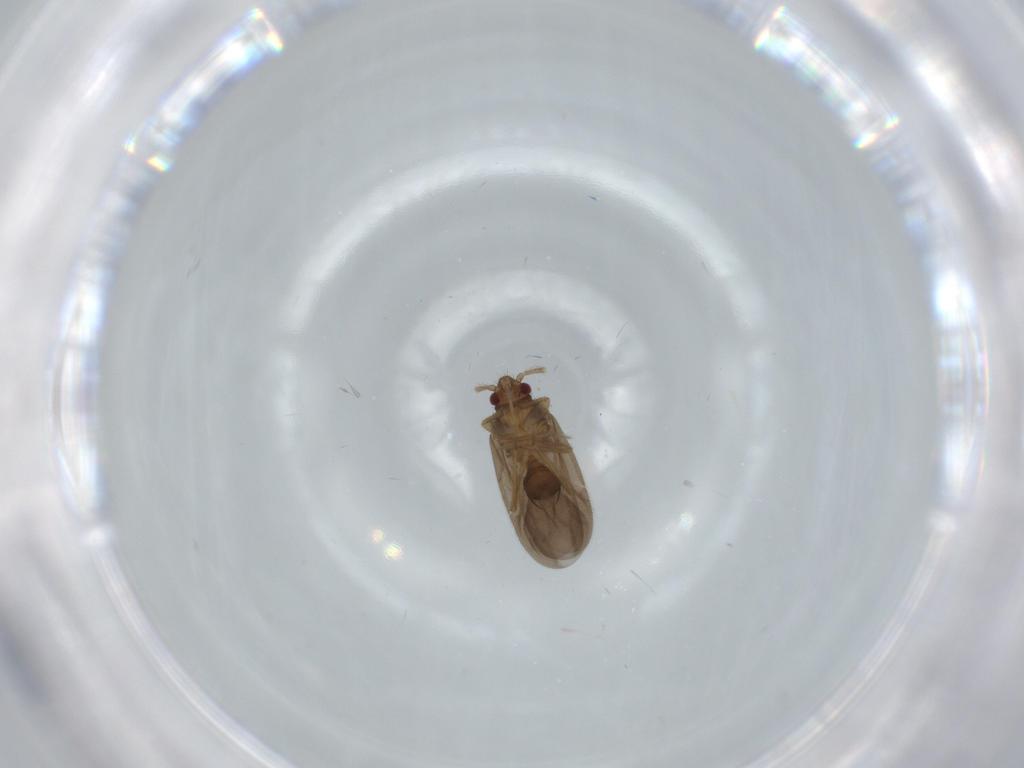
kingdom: Animalia
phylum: Arthropoda
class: Insecta
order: Hemiptera
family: Ceratocombidae
